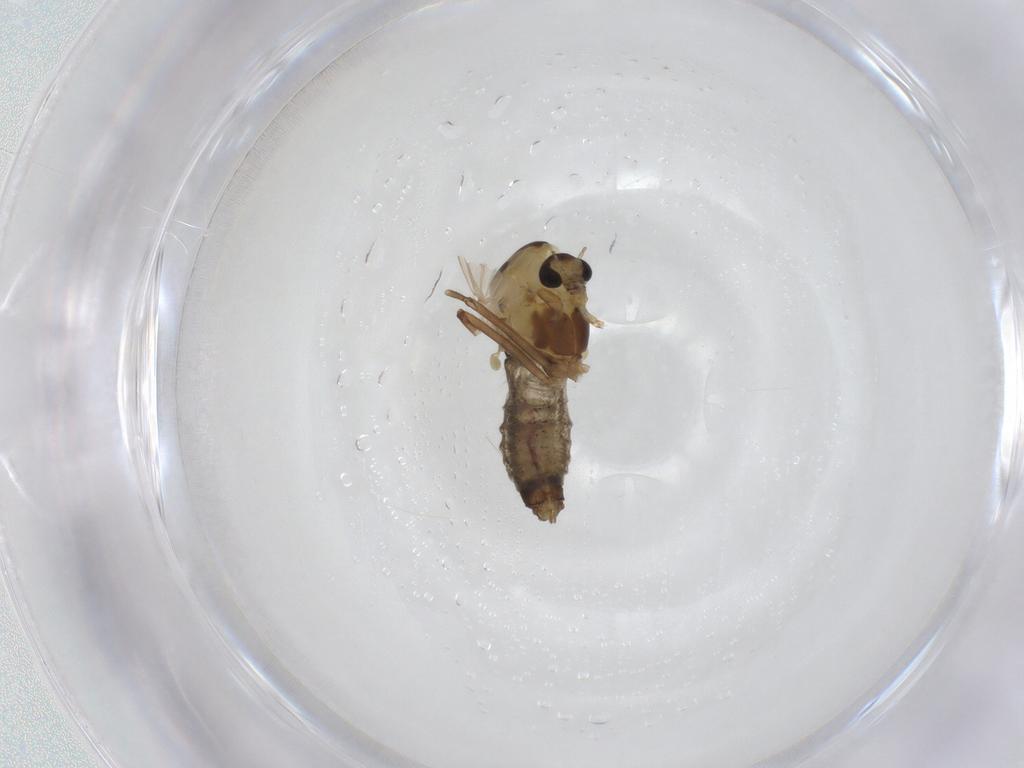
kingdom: Animalia
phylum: Arthropoda
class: Insecta
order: Diptera
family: Chironomidae
